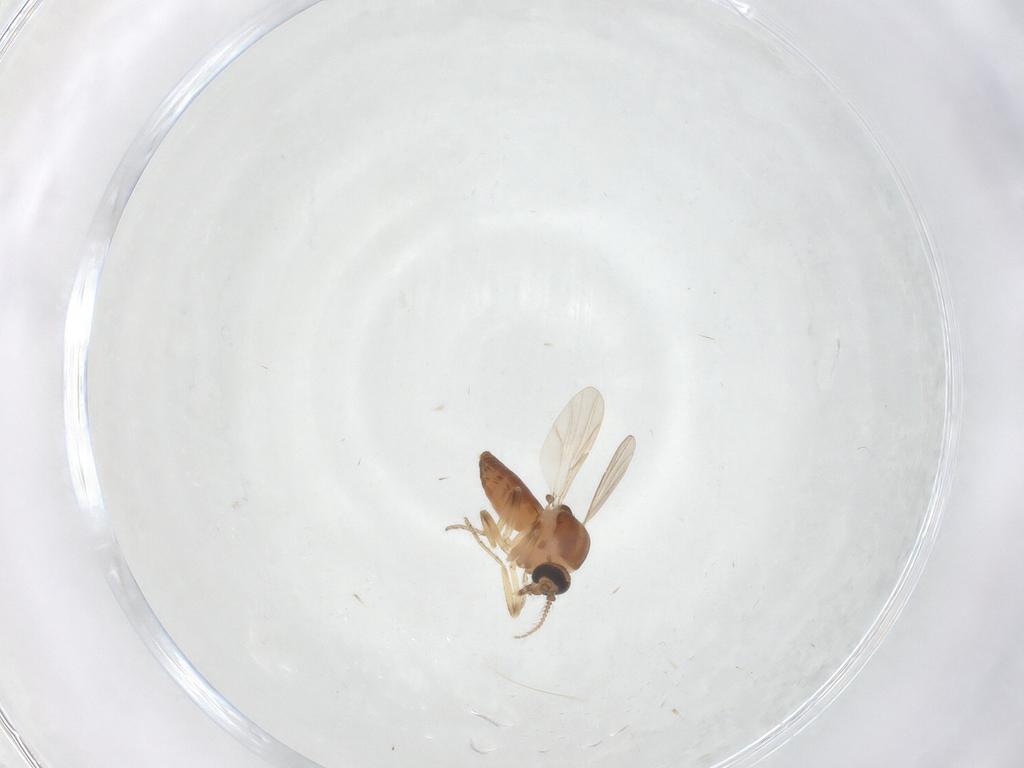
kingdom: Animalia
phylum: Arthropoda
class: Insecta
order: Diptera
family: Ceratopogonidae
